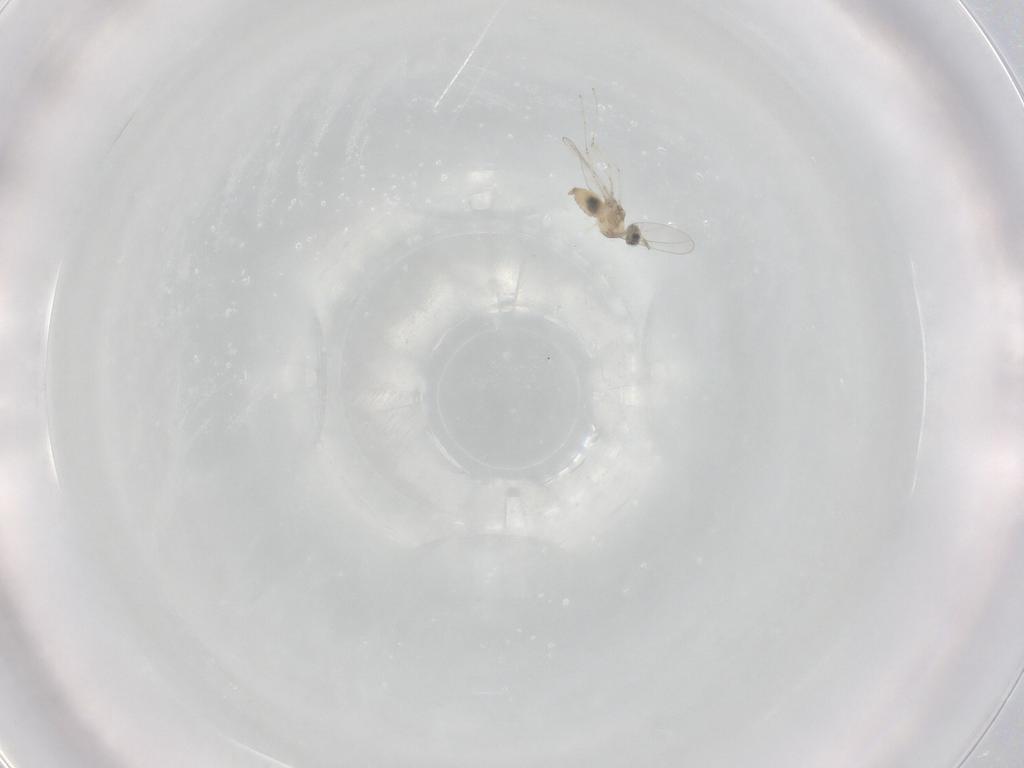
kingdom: Animalia
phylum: Arthropoda
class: Insecta
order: Diptera
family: Cecidomyiidae
